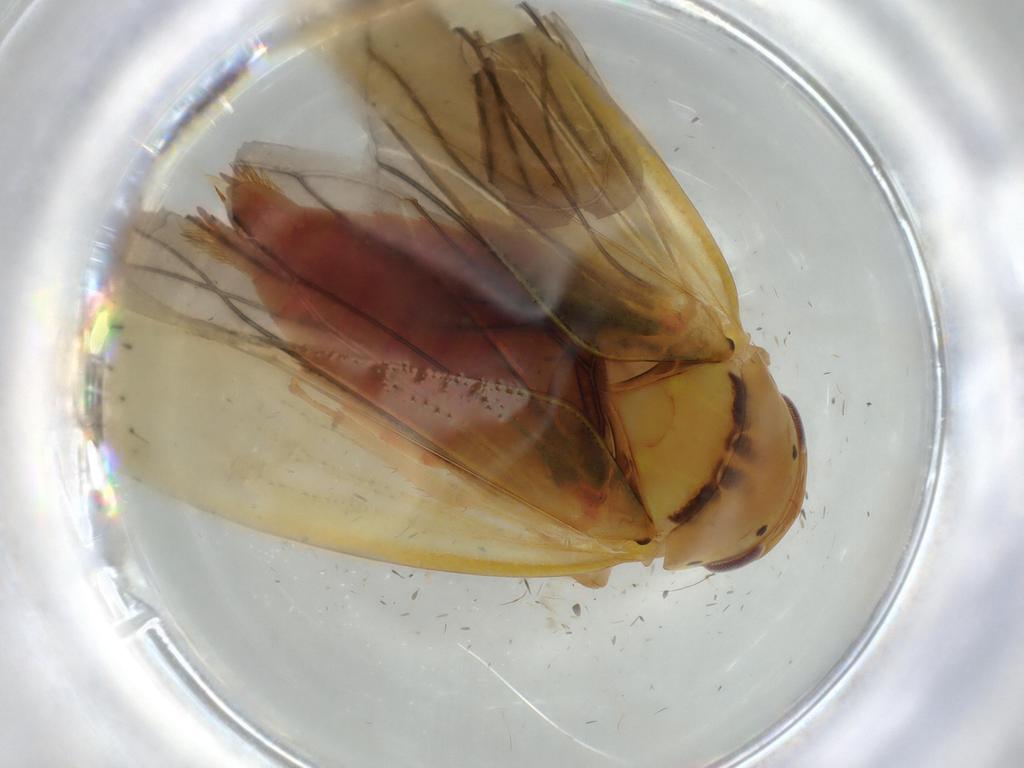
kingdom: Animalia
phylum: Arthropoda
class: Insecta
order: Hemiptera
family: Cicadellidae
